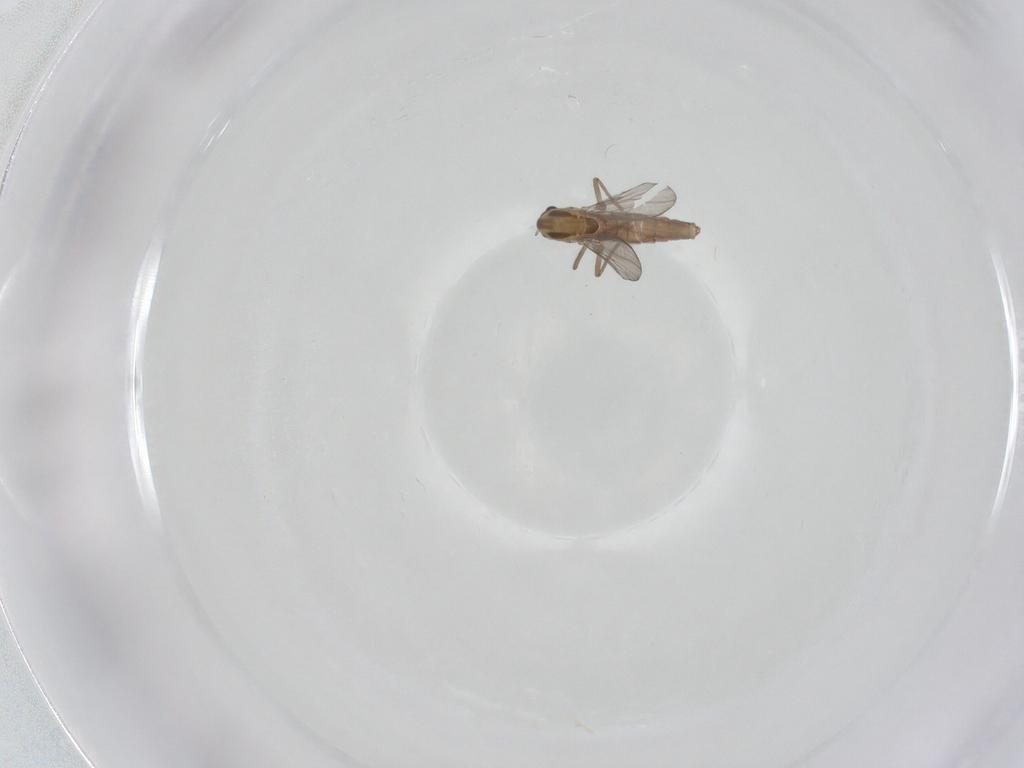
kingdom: Animalia
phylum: Arthropoda
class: Insecta
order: Diptera
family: Chironomidae
